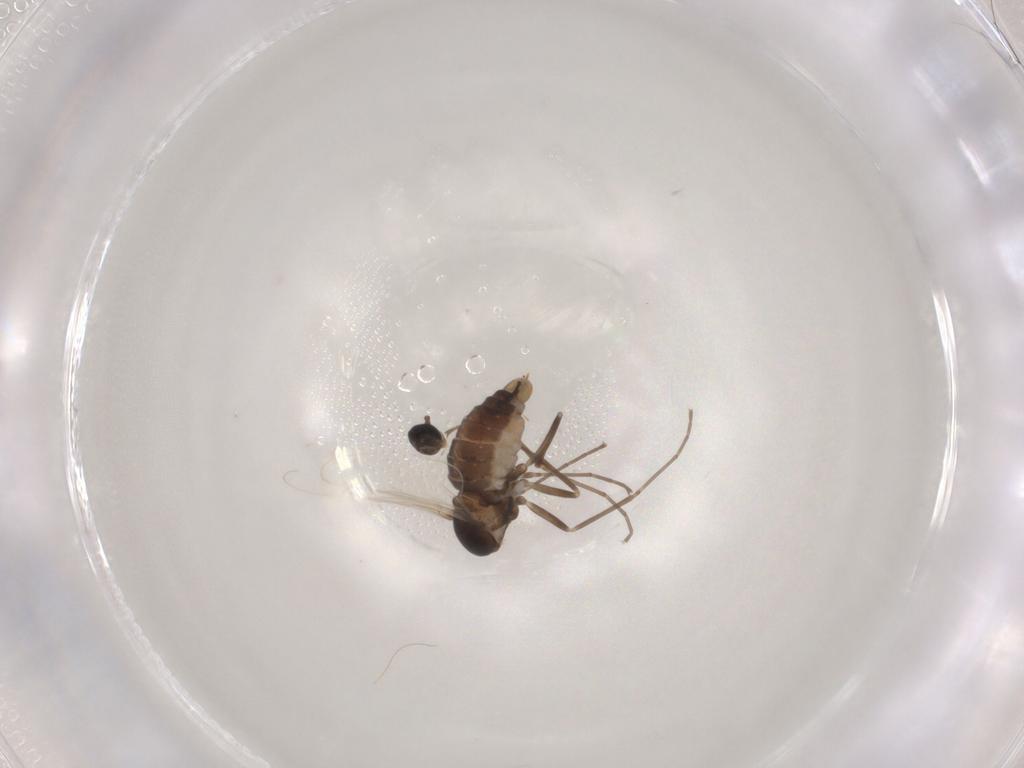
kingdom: Animalia
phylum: Arthropoda
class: Insecta
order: Diptera
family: Cecidomyiidae
